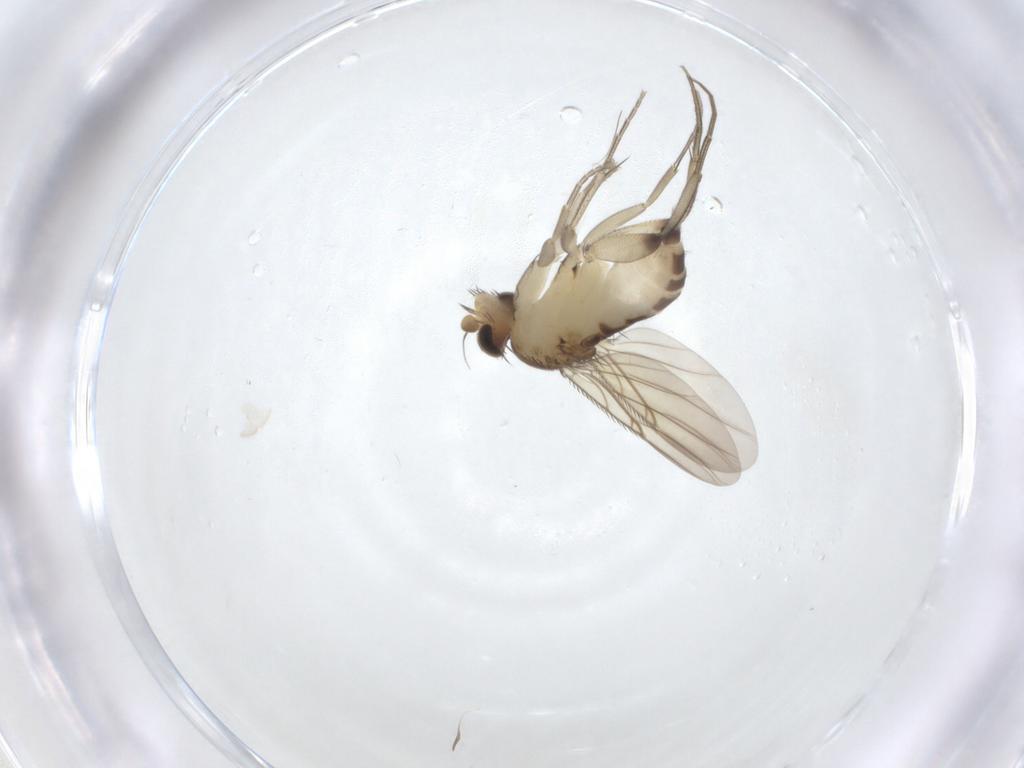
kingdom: Animalia
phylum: Arthropoda
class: Insecta
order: Diptera
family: Phoridae
